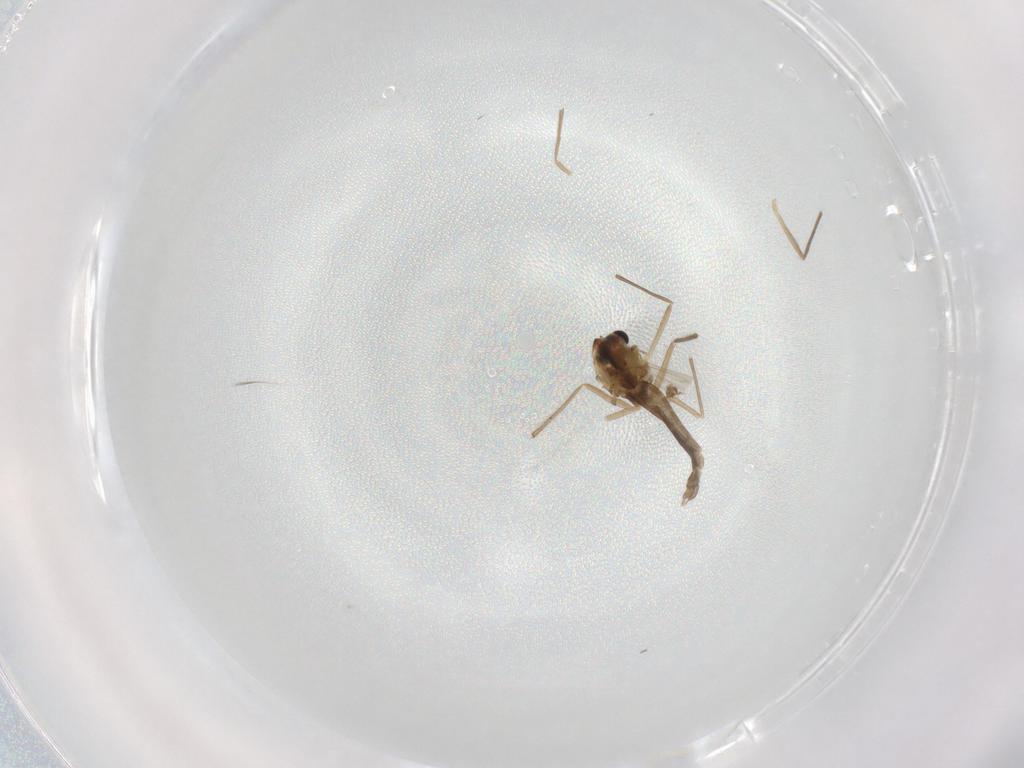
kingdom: Animalia
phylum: Arthropoda
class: Insecta
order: Diptera
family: Chironomidae
